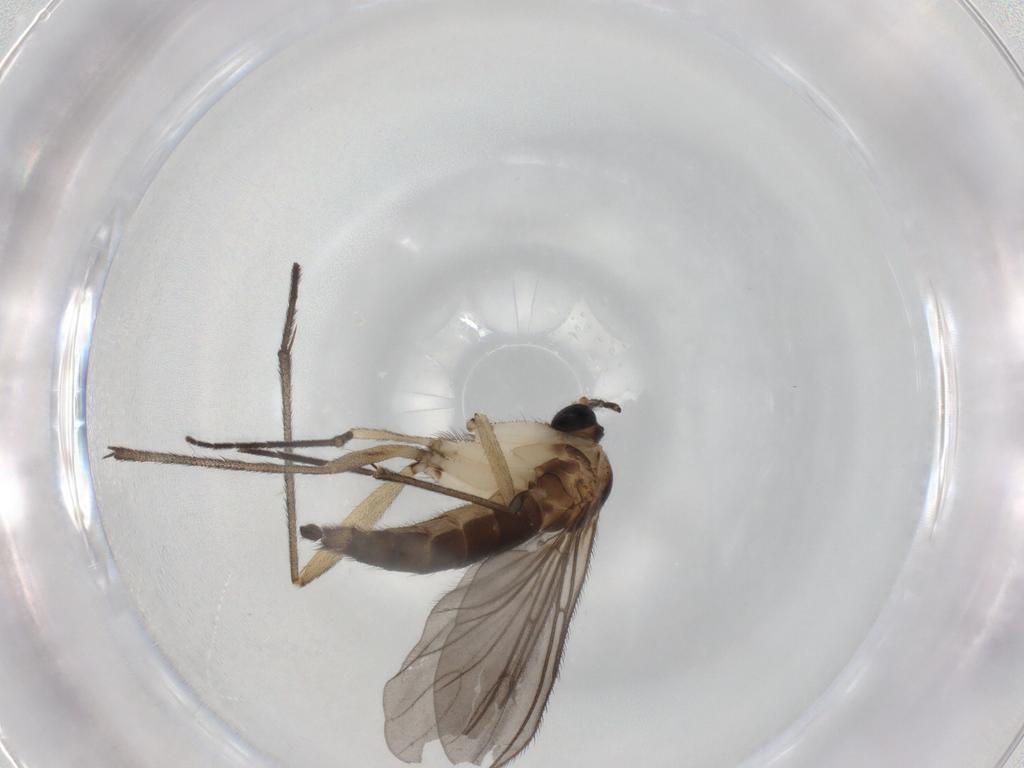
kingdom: Animalia
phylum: Arthropoda
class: Insecta
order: Diptera
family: Sciaridae
